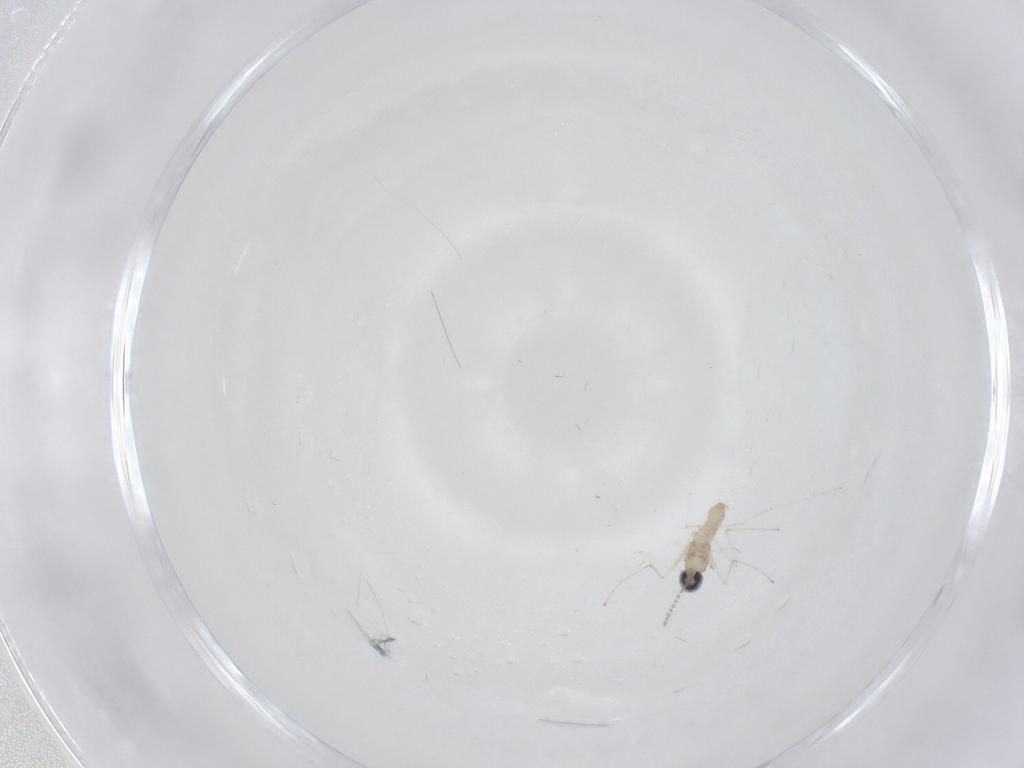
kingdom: Animalia
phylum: Arthropoda
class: Insecta
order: Diptera
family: Cecidomyiidae
